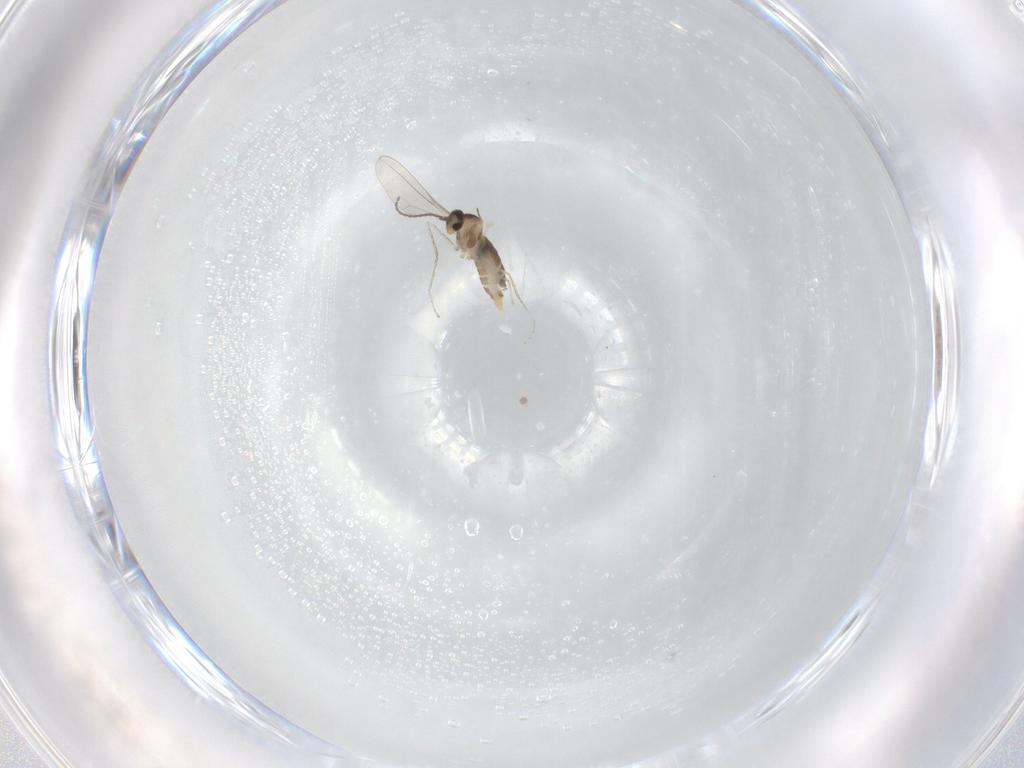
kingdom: Animalia
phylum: Arthropoda
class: Insecta
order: Diptera
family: Cecidomyiidae
